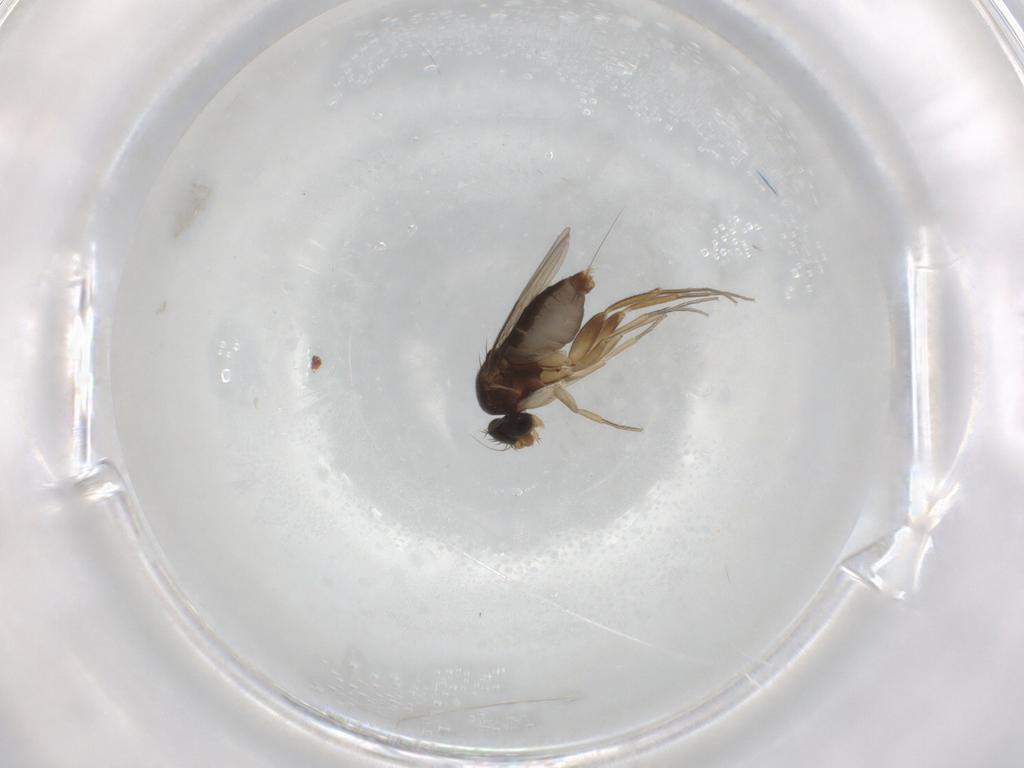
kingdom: Animalia
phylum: Arthropoda
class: Insecta
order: Diptera
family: Phoridae
